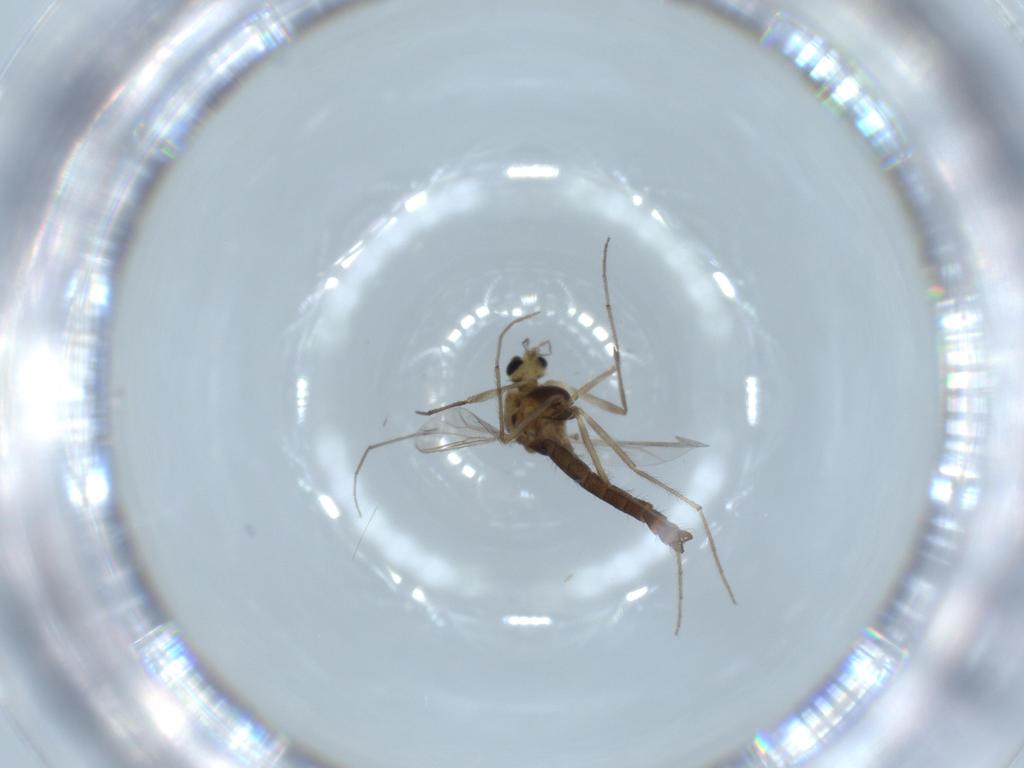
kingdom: Animalia
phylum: Arthropoda
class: Insecta
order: Diptera
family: Chironomidae
